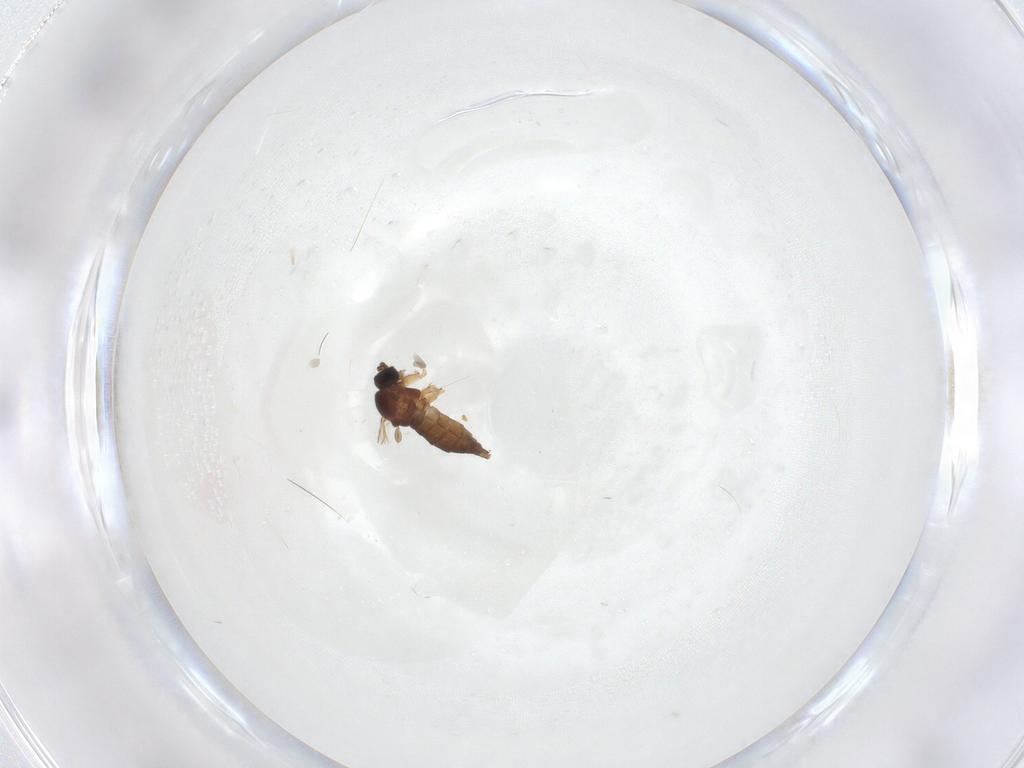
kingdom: Animalia
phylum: Arthropoda
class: Insecta
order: Diptera
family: Sciaridae
